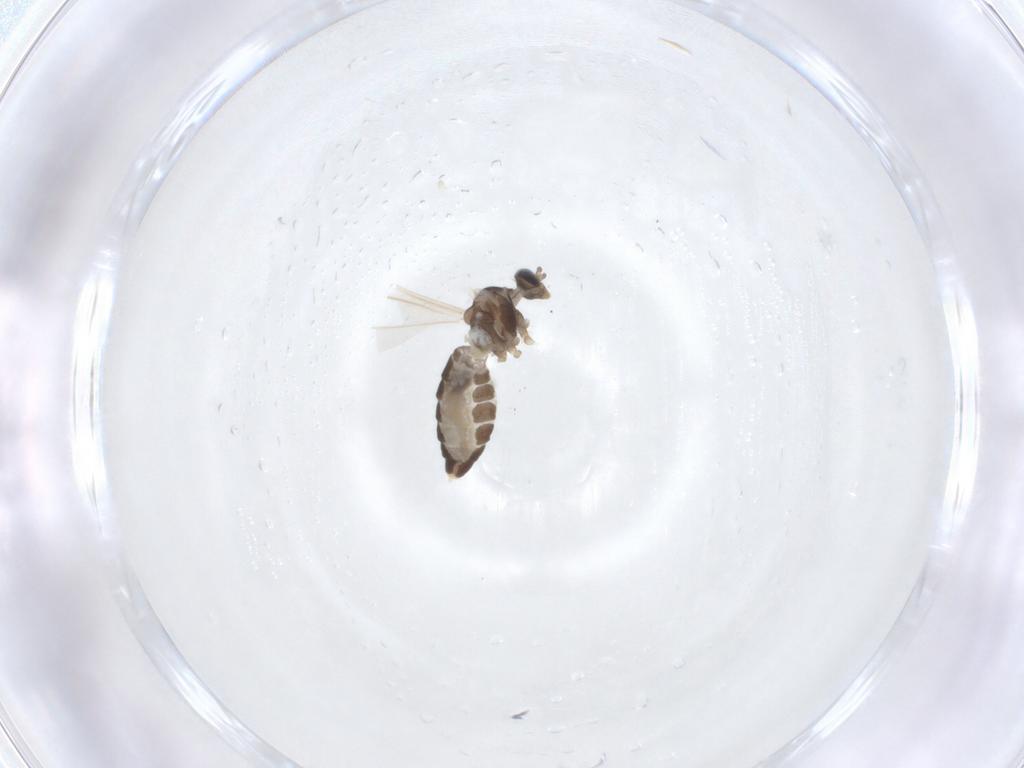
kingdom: Animalia
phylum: Arthropoda
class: Insecta
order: Diptera
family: Cecidomyiidae
